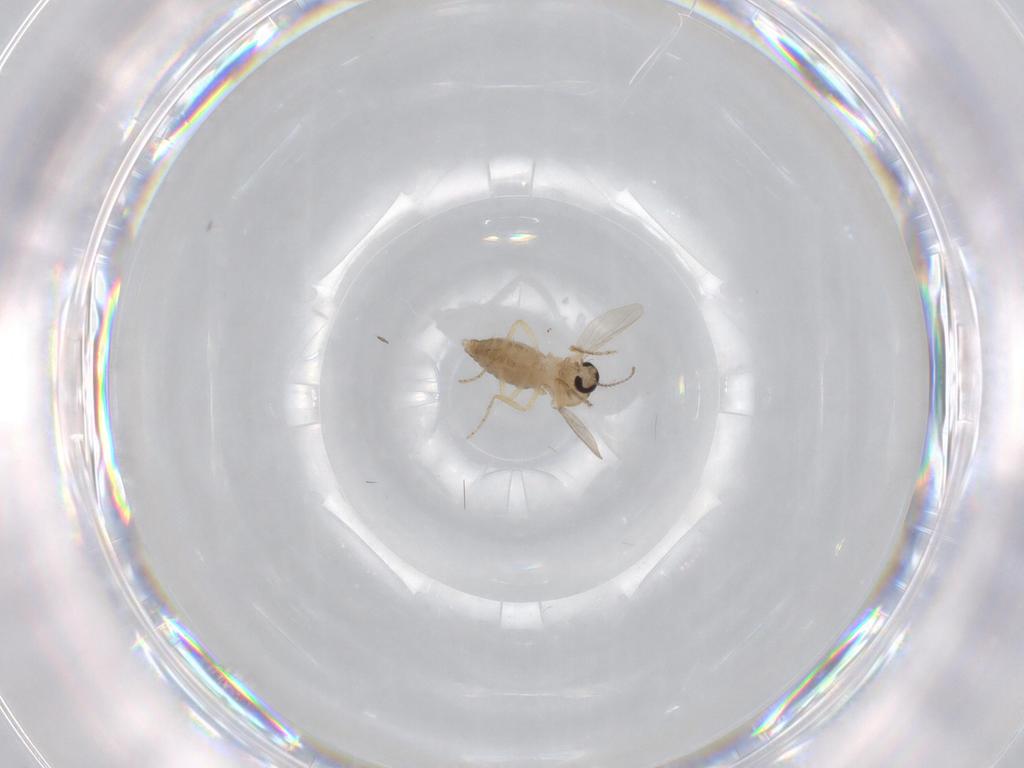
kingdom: Animalia
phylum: Arthropoda
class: Insecta
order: Diptera
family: Ceratopogonidae
